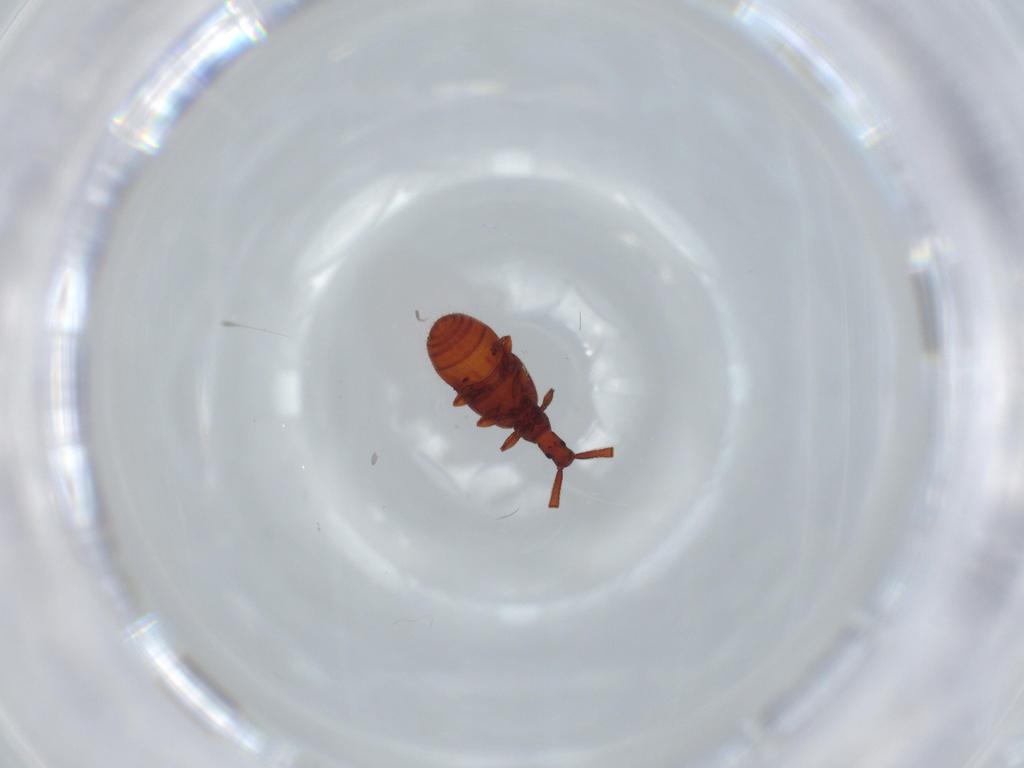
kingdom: Animalia
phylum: Arthropoda
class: Insecta
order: Coleoptera
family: Staphylinidae
